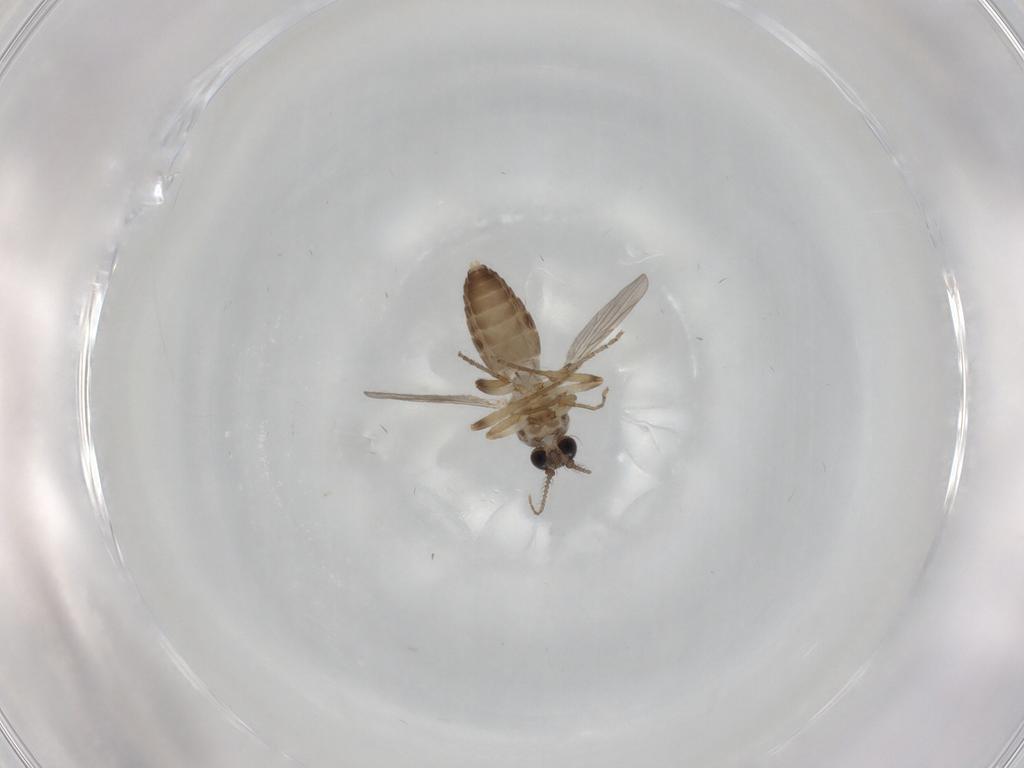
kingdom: Animalia
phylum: Arthropoda
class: Insecta
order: Diptera
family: Ceratopogonidae
